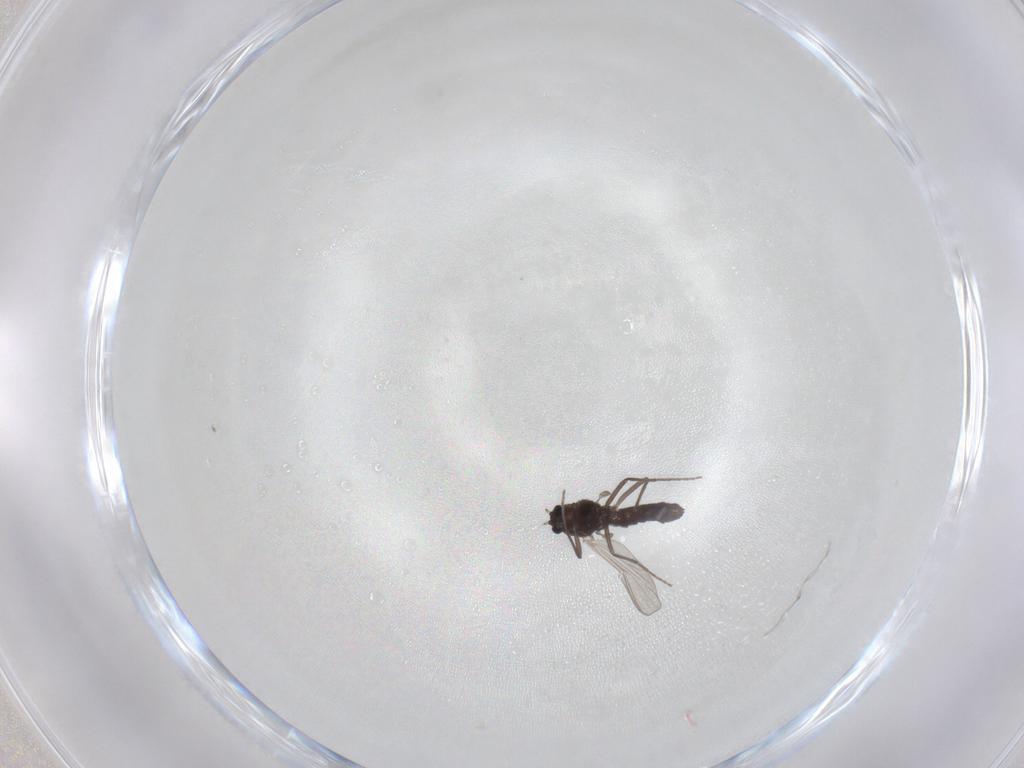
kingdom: Animalia
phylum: Arthropoda
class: Insecta
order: Diptera
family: Chironomidae
